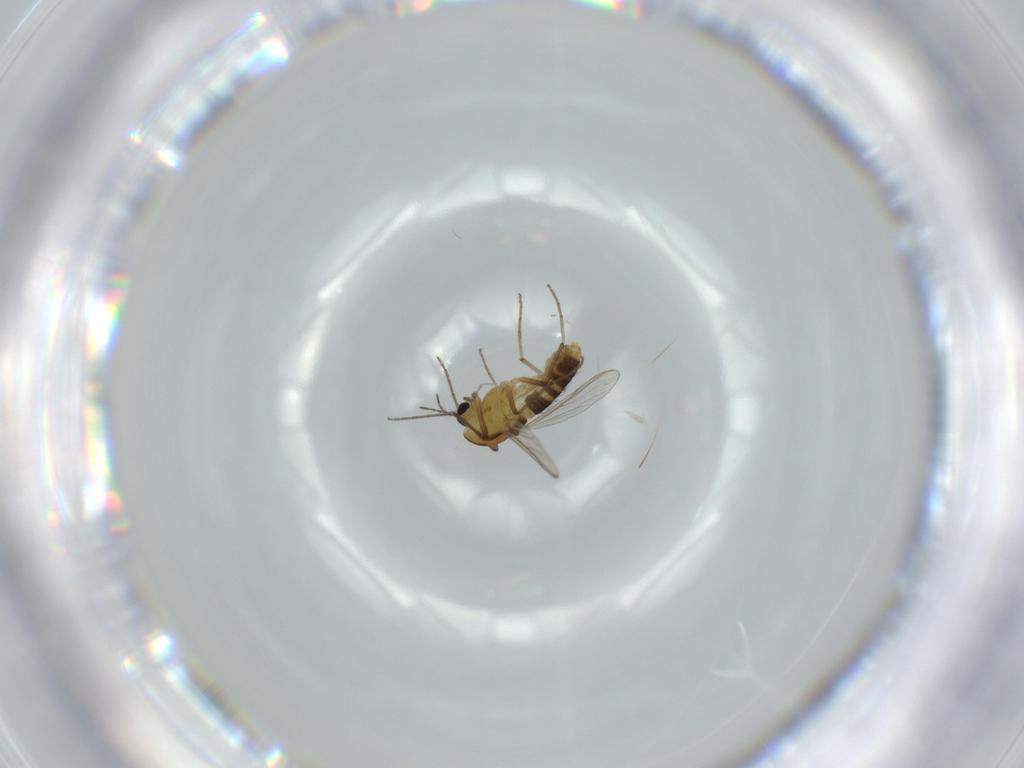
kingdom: Animalia
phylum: Arthropoda
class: Insecta
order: Diptera
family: Chironomidae
